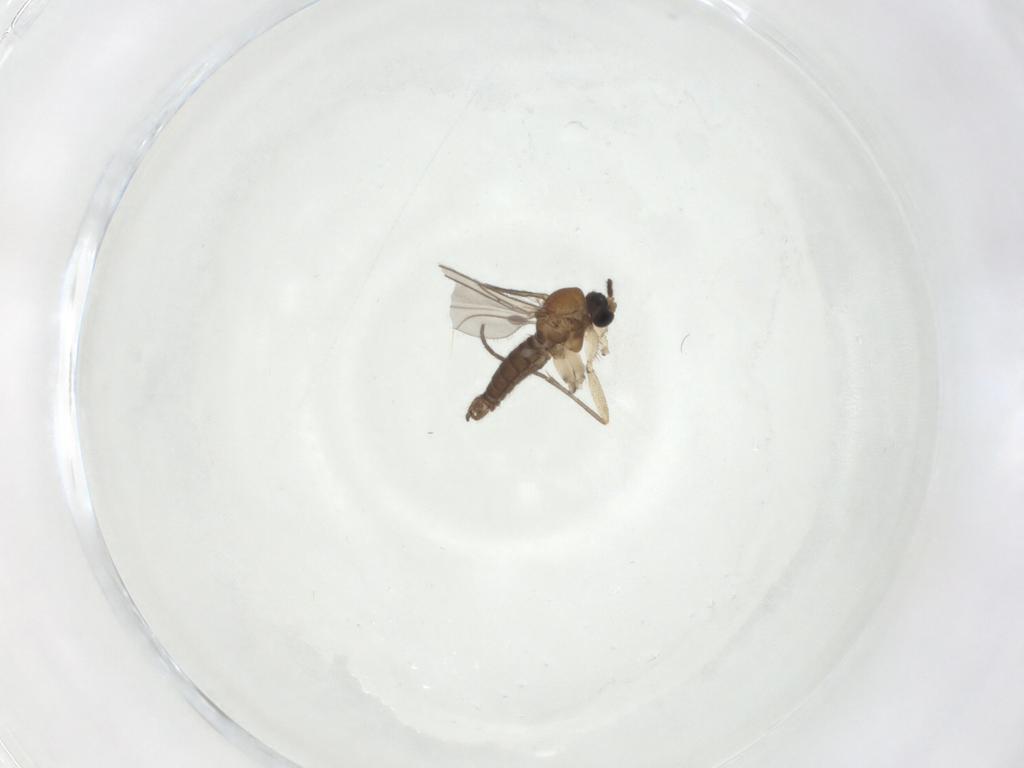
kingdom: Animalia
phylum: Arthropoda
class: Insecta
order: Diptera
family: Sciaridae
